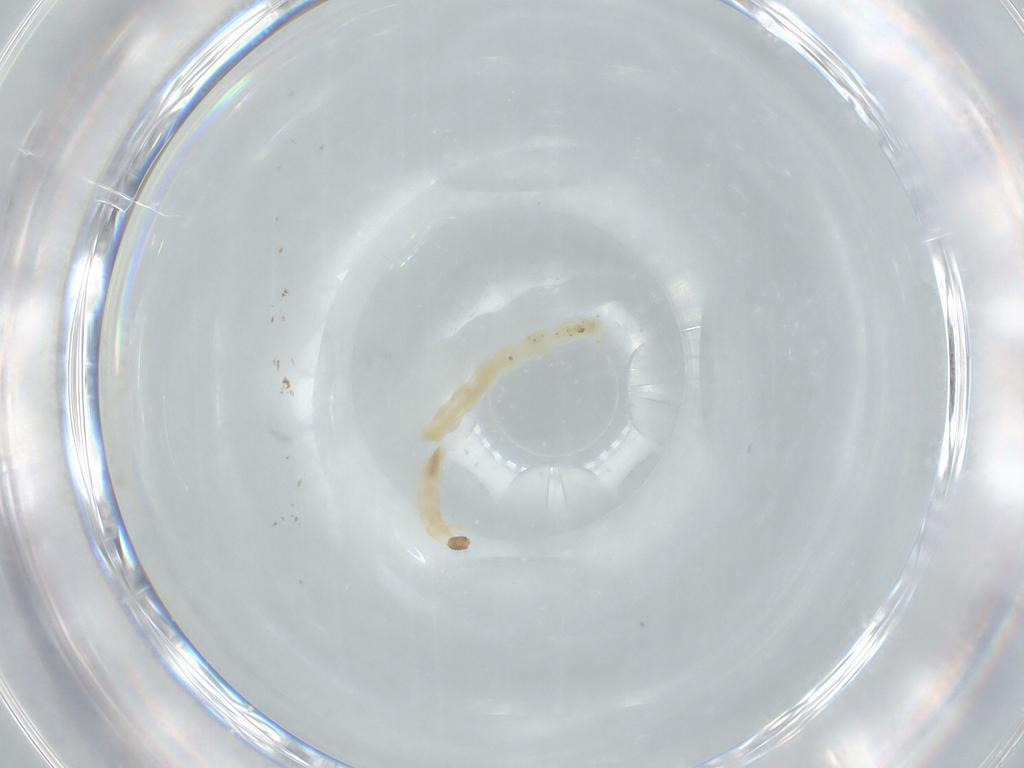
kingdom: Animalia
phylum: Arthropoda
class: Insecta
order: Diptera
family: Chironomidae
